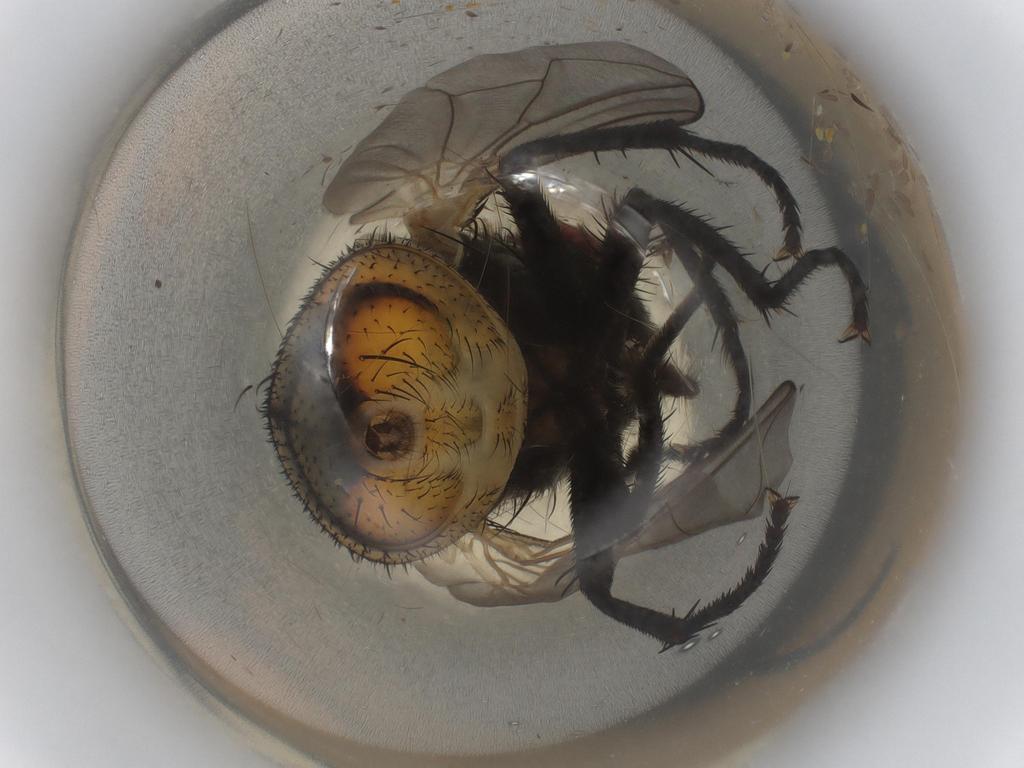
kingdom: Animalia
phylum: Arthropoda
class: Insecta
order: Diptera
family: Muscidae
